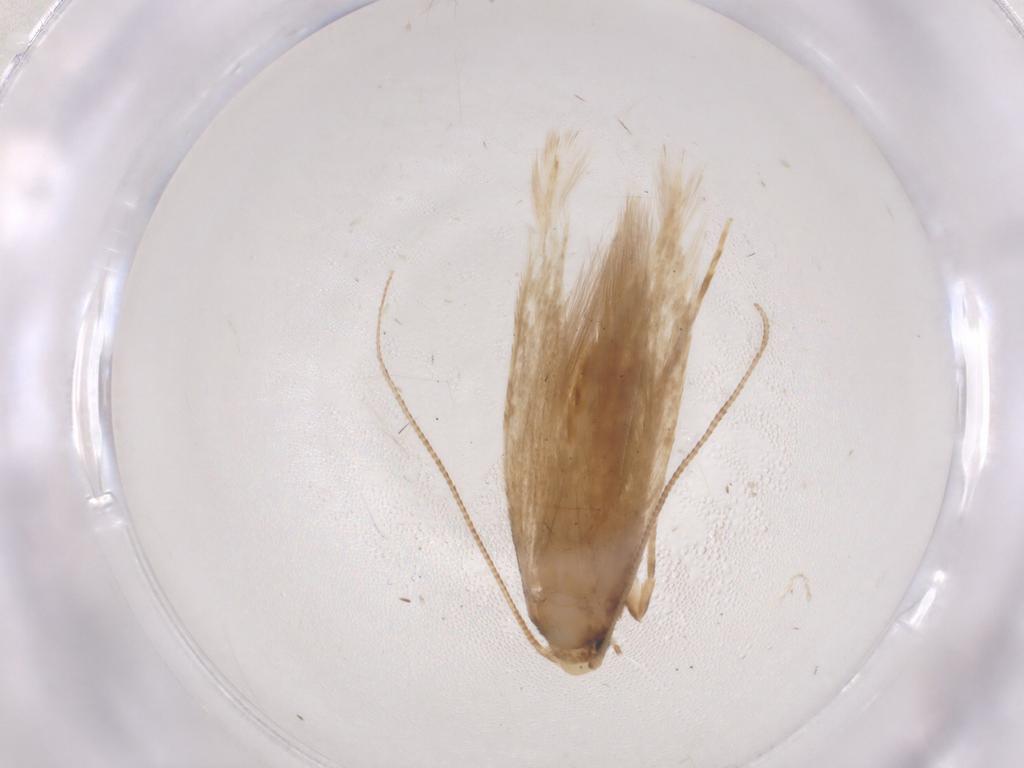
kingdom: Animalia
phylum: Arthropoda
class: Insecta
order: Lepidoptera
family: Tineidae
